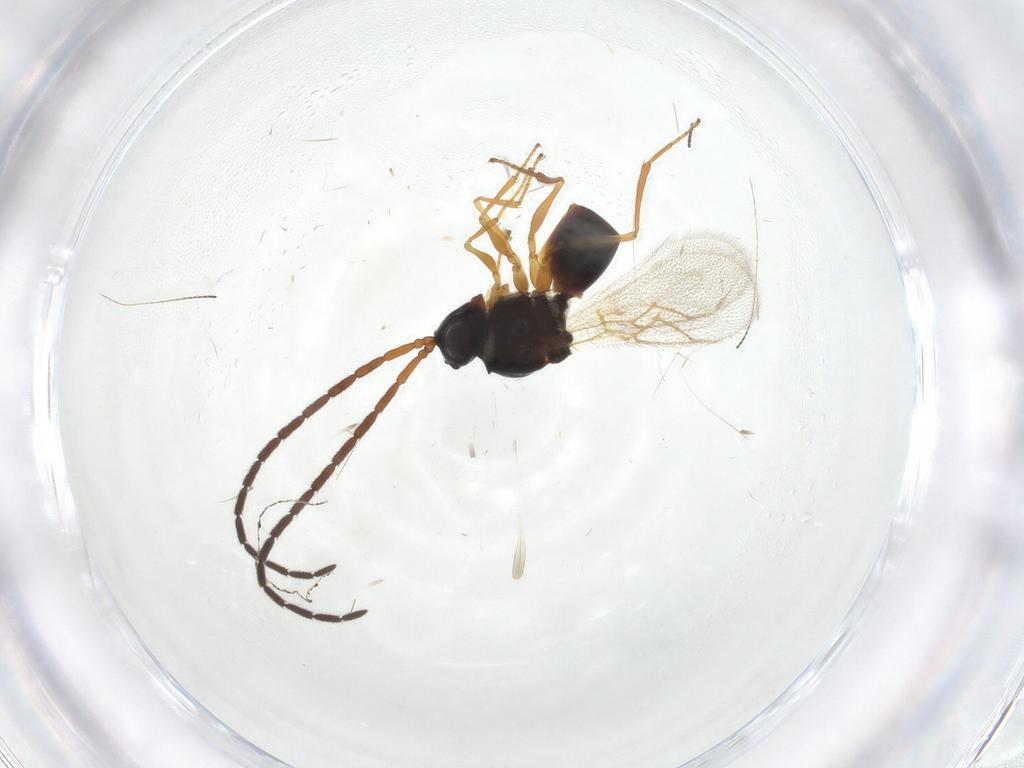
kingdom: Animalia
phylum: Arthropoda
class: Insecta
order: Hymenoptera
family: Figitidae
